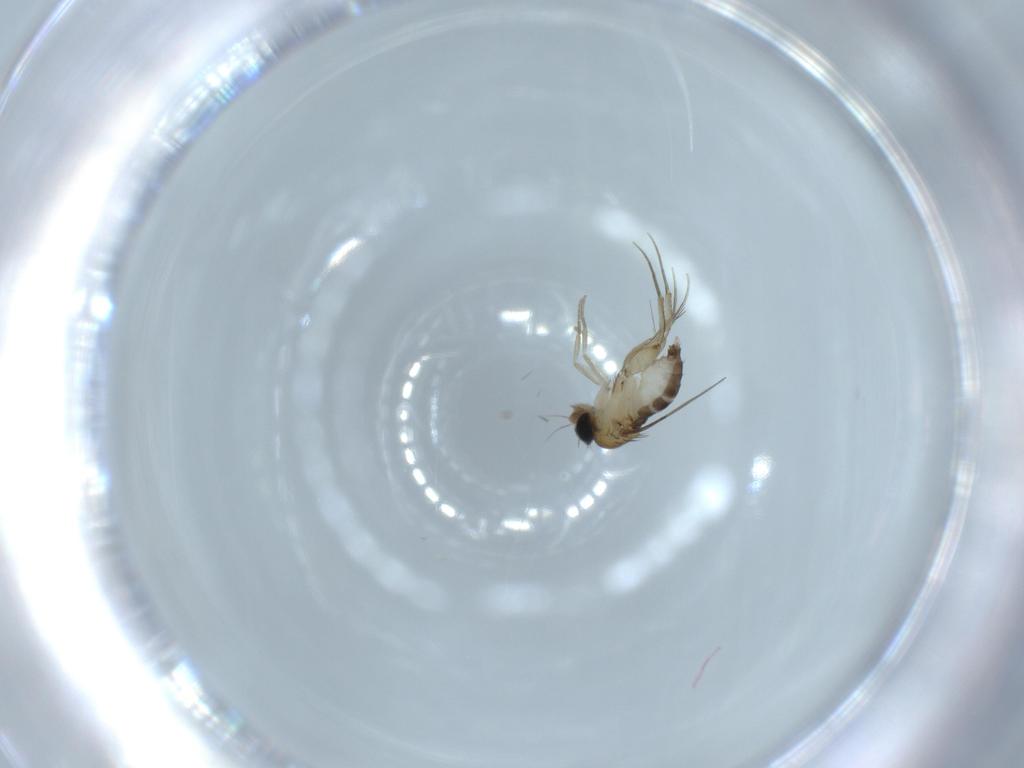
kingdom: Animalia
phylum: Arthropoda
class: Insecta
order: Diptera
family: Phoridae
